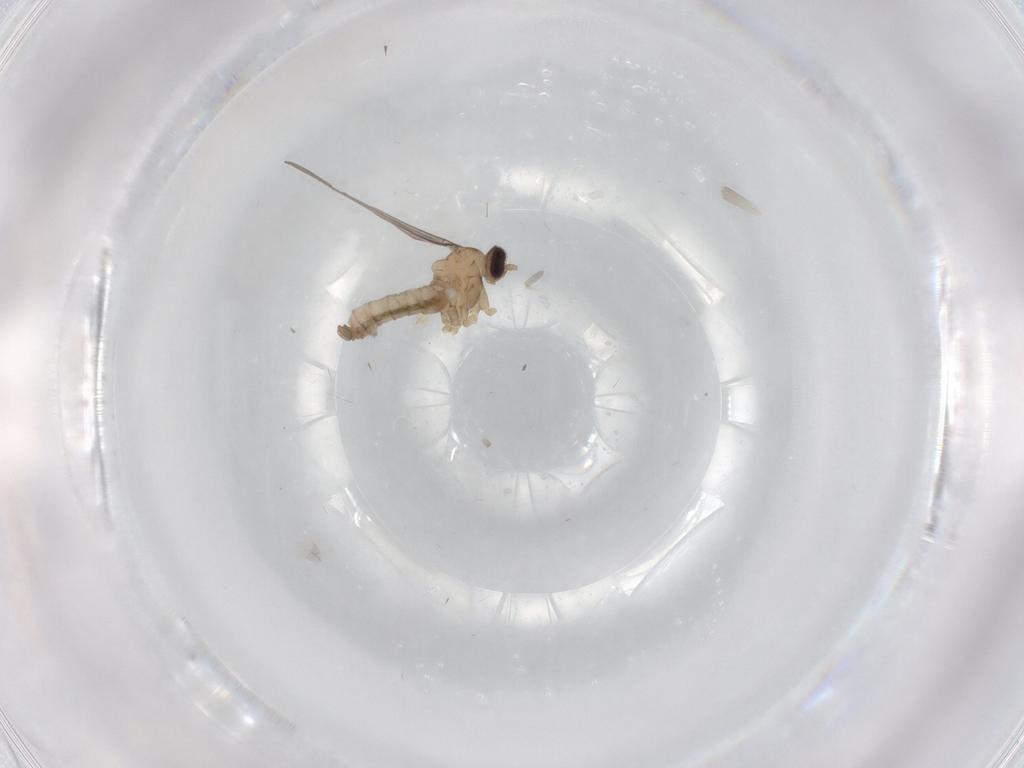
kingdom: Animalia
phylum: Arthropoda
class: Insecta
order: Diptera
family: Cecidomyiidae
